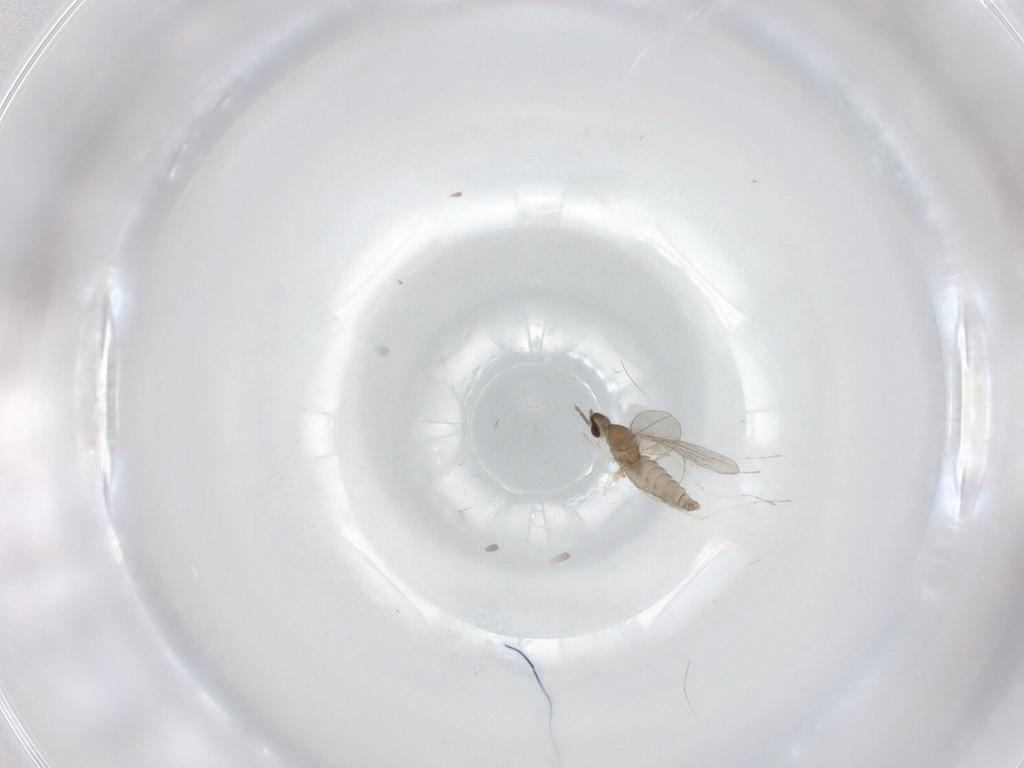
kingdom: Animalia
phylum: Arthropoda
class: Insecta
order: Diptera
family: Cecidomyiidae
